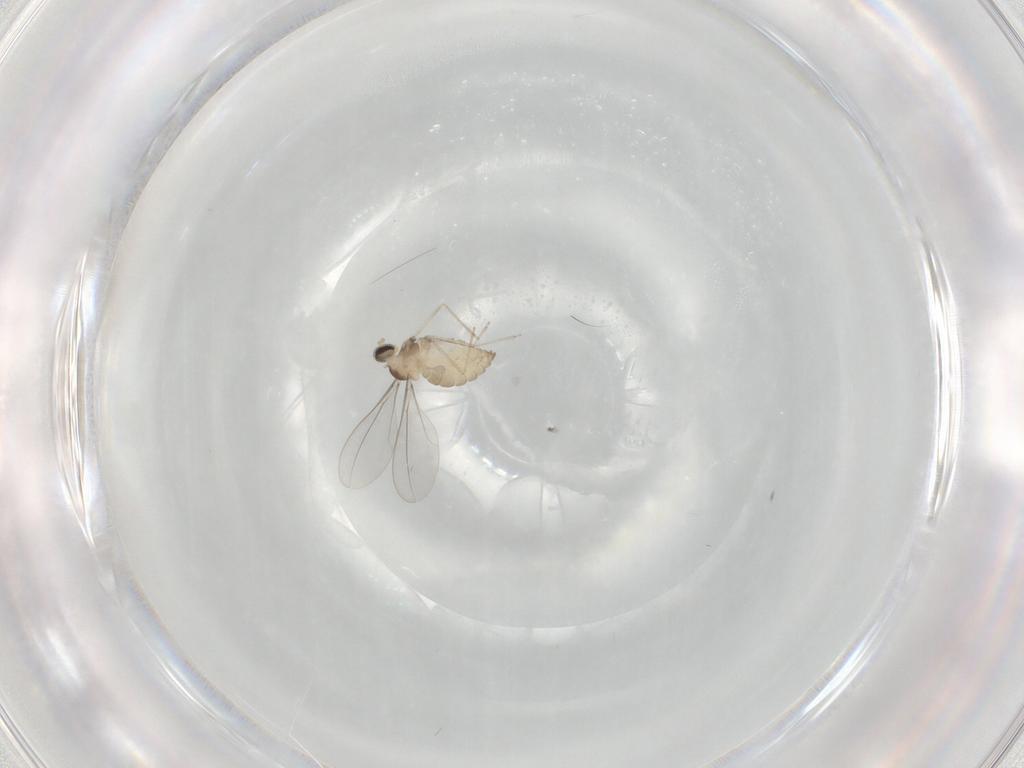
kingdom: Animalia
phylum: Arthropoda
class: Insecta
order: Diptera
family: Cecidomyiidae
